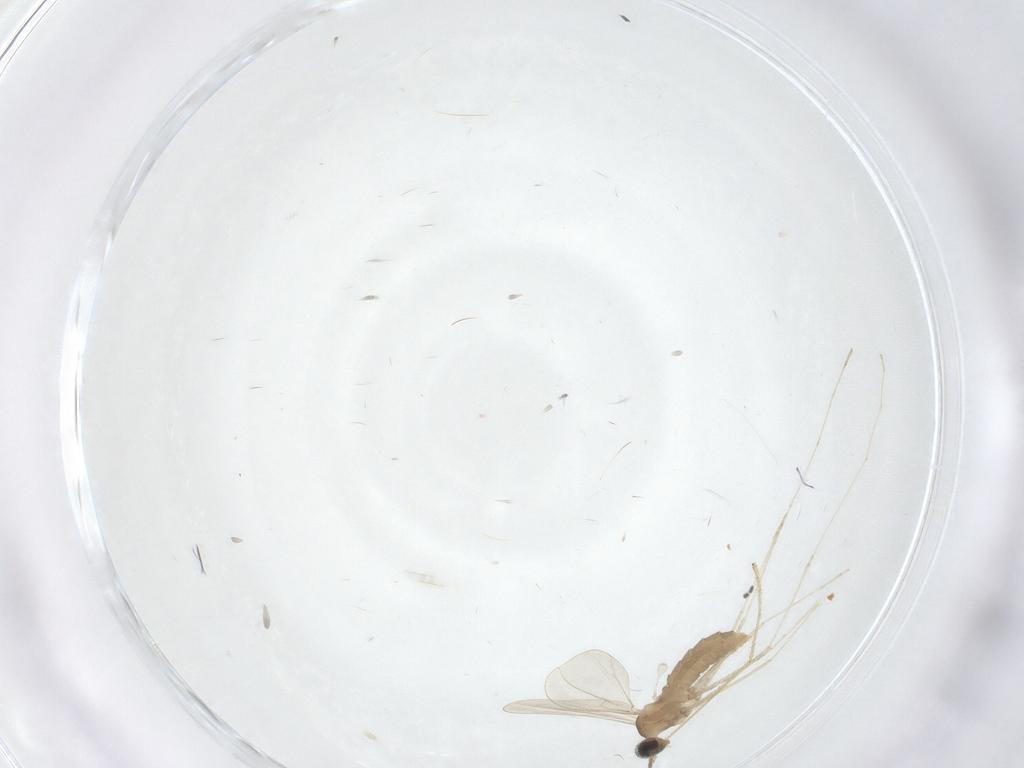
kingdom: Animalia
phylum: Arthropoda
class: Insecta
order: Diptera
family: Cecidomyiidae
